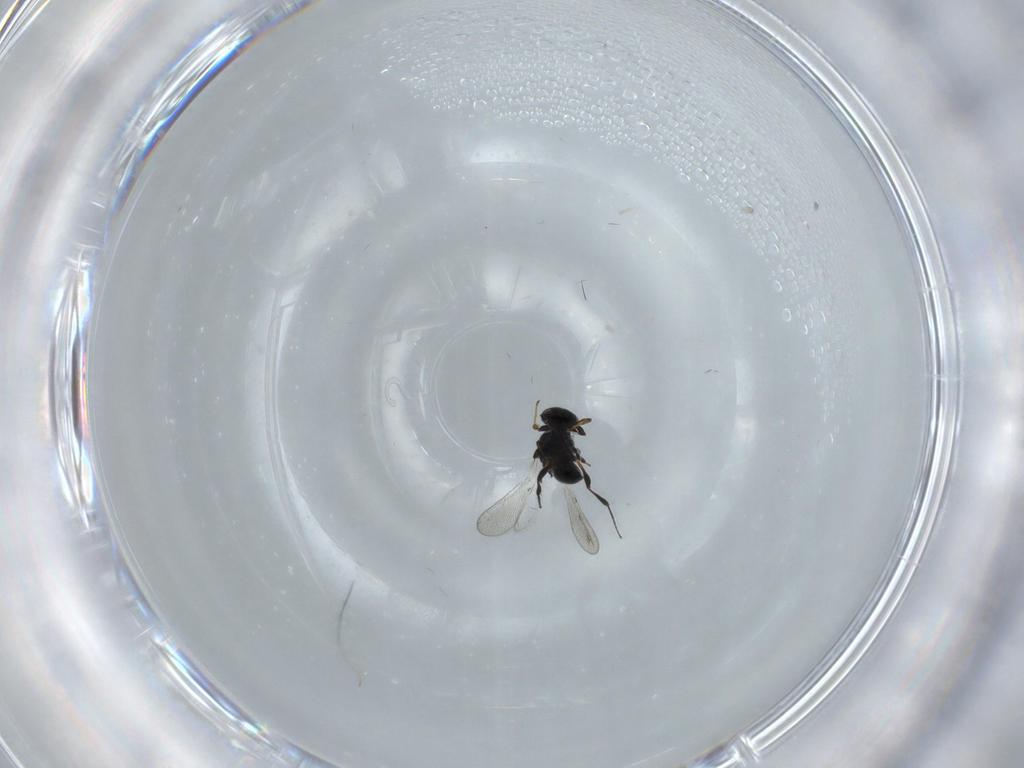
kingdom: Animalia
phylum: Arthropoda
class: Insecta
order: Hymenoptera
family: Platygastridae
